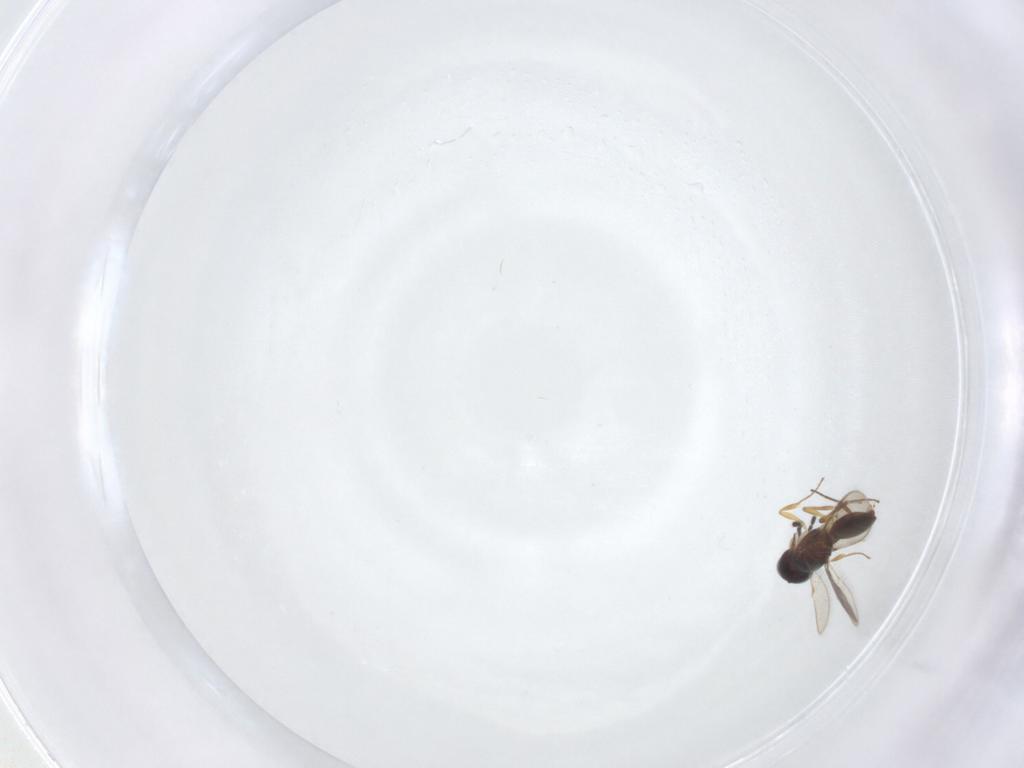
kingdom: Animalia
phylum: Arthropoda
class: Insecta
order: Hymenoptera
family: Scelionidae
